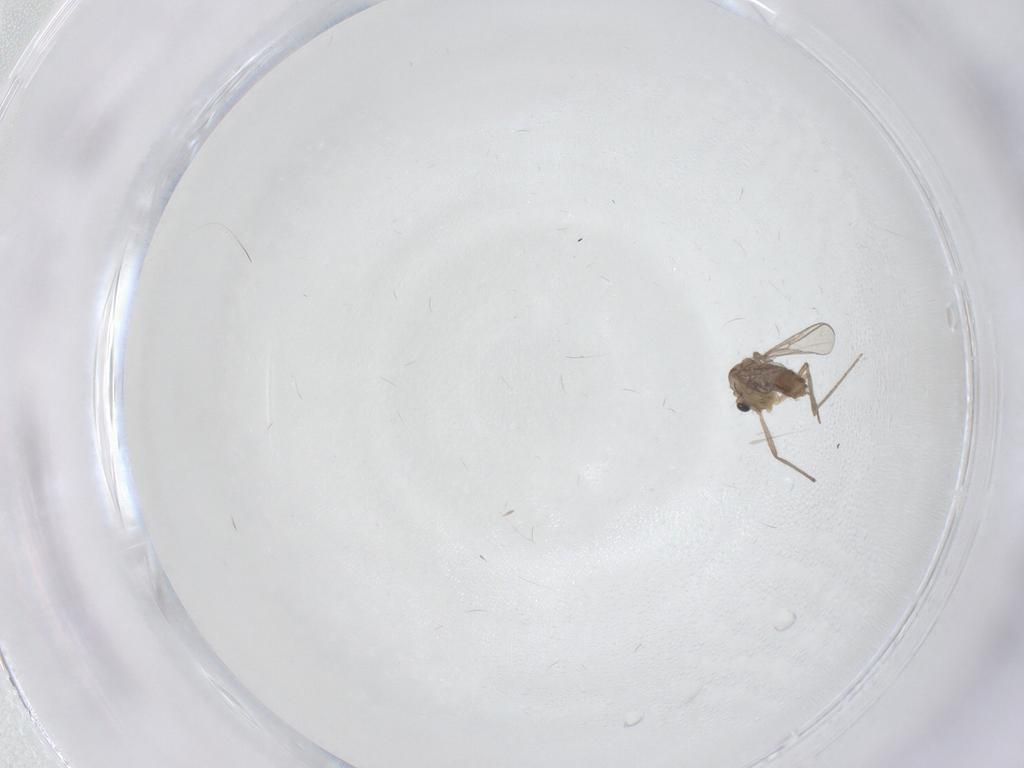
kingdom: Animalia
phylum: Arthropoda
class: Insecta
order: Diptera
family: Chironomidae
